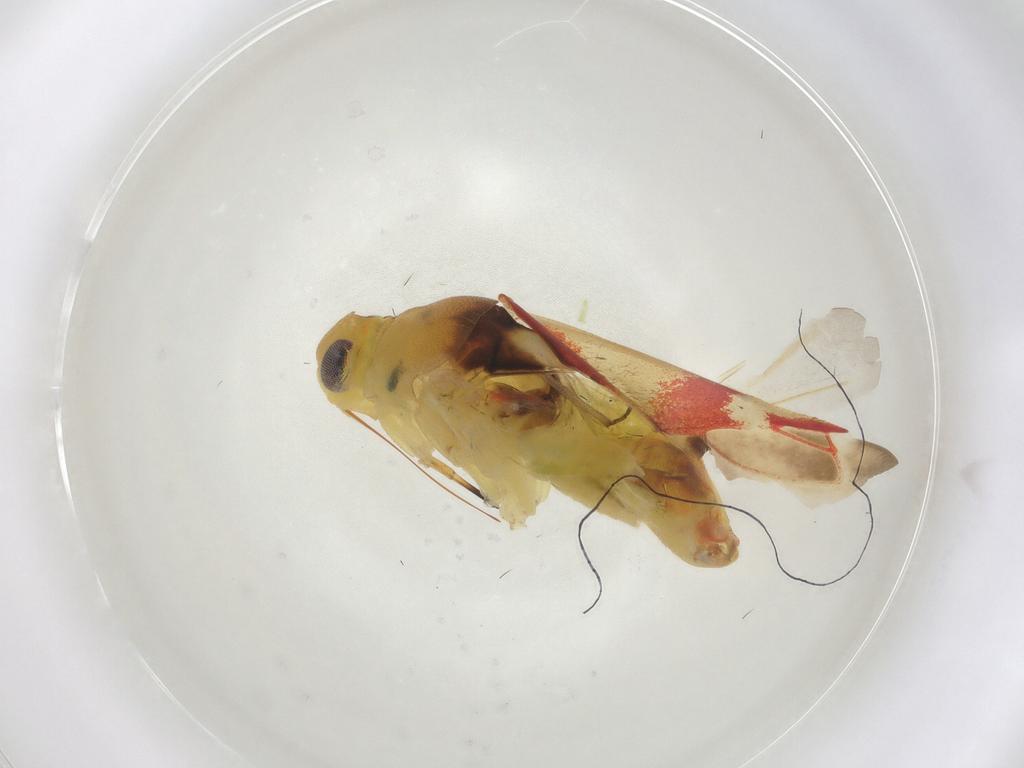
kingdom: Animalia
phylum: Arthropoda
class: Insecta
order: Hemiptera
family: Miridae
